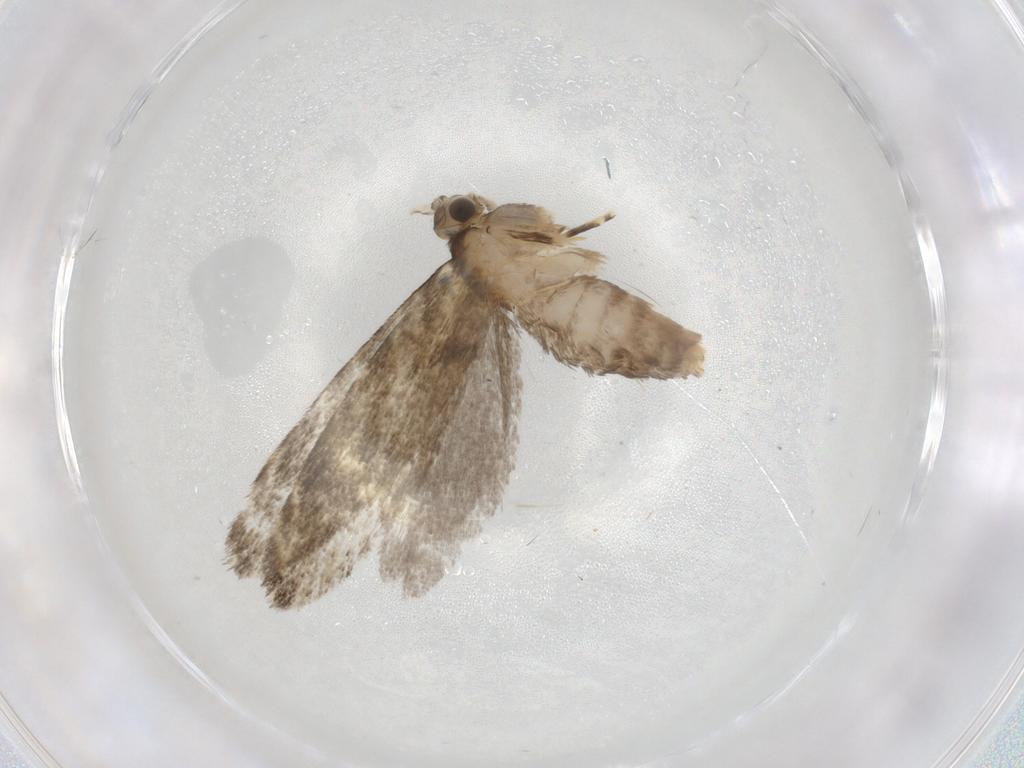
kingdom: Animalia
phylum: Arthropoda
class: Insecta
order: Lepidoptera
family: Tineidae
